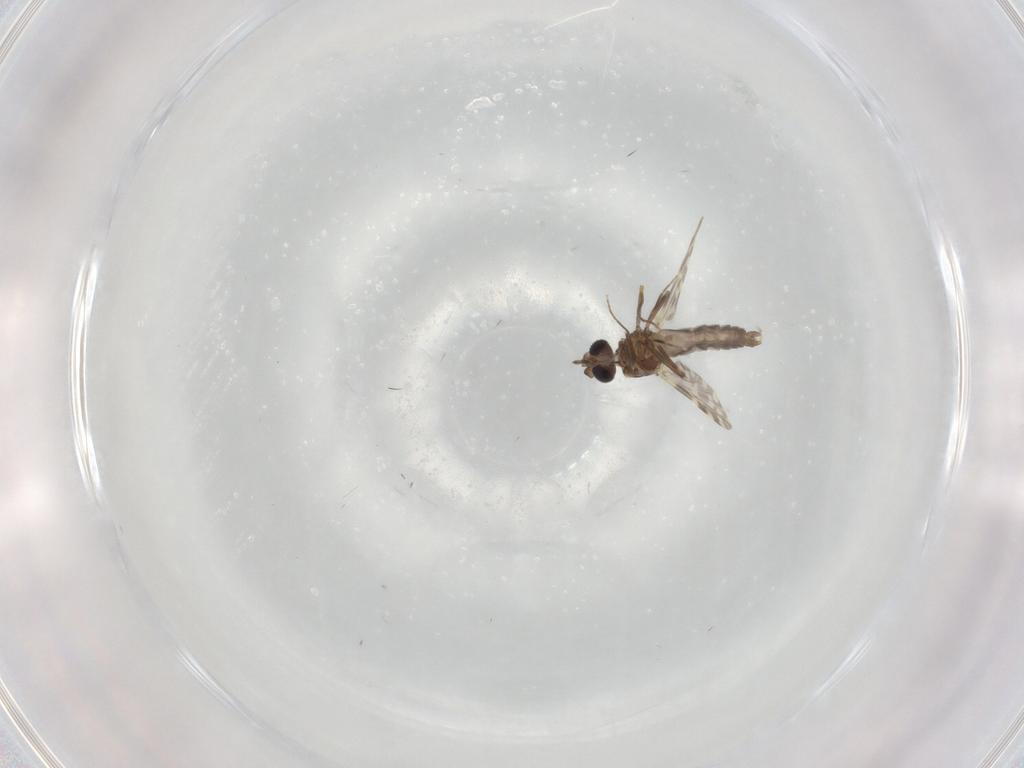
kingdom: Animalia
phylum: Arthropoda
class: Insecta
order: Diptera
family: Ceratopogonidae
